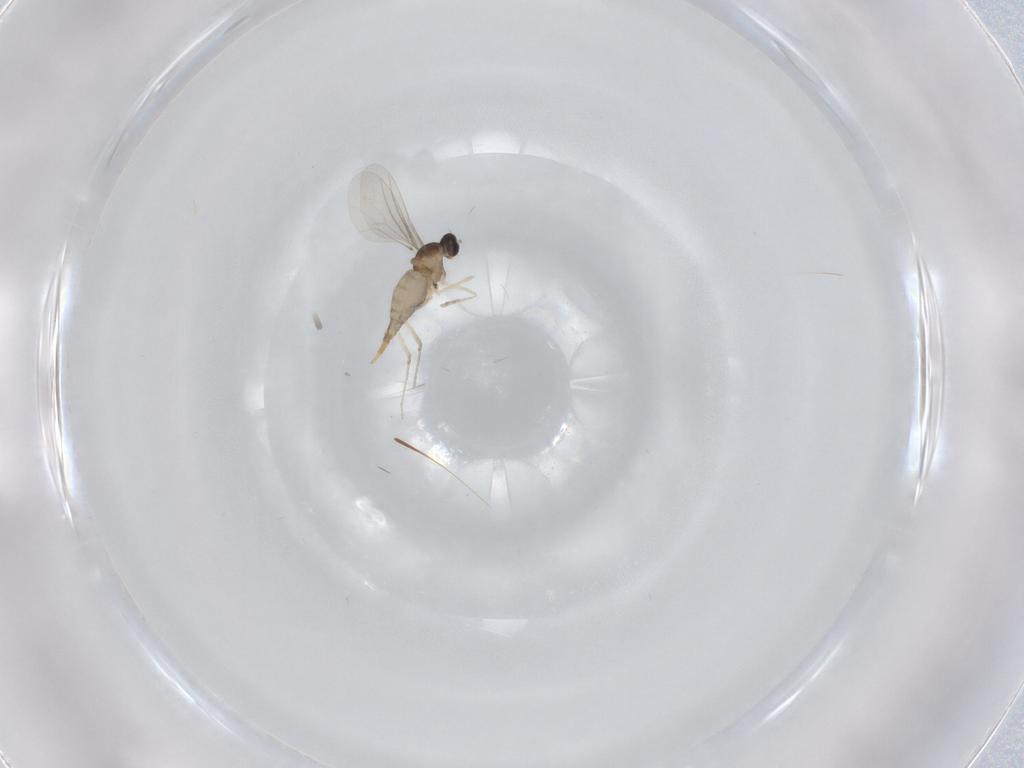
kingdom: Animalia
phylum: Arthropoda
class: Insecta
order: Diptera
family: Cecidomyiidae
